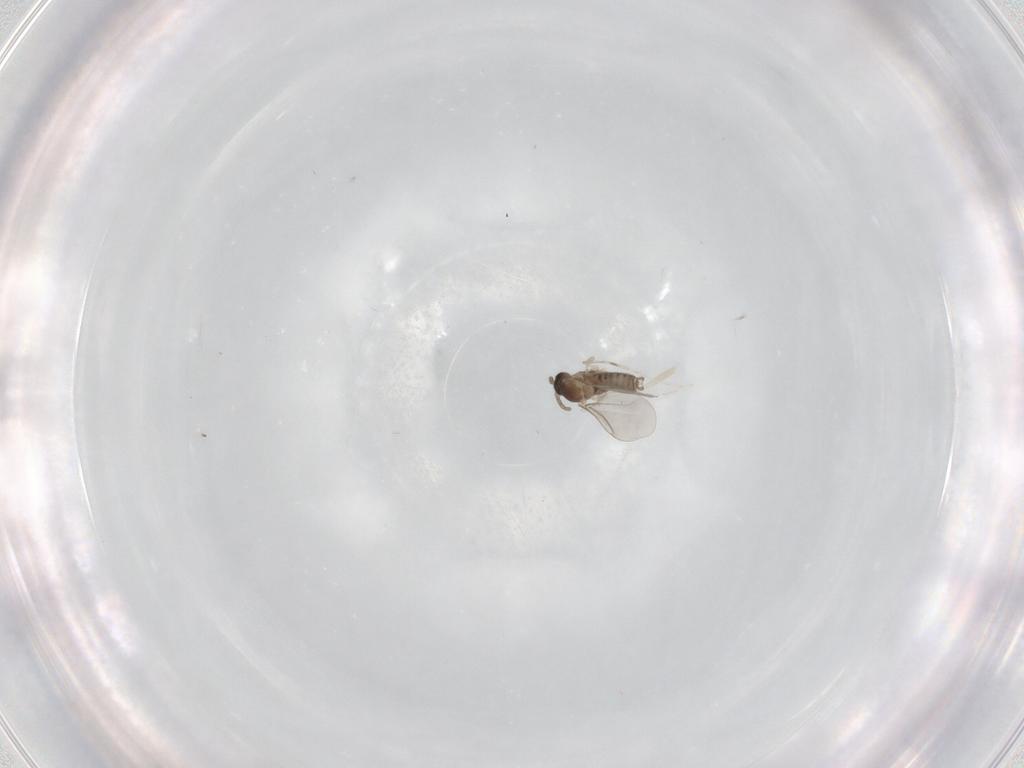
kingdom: Animalia
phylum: Arthropoda
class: Insecta
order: Diptera
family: Cecidomyiidae
